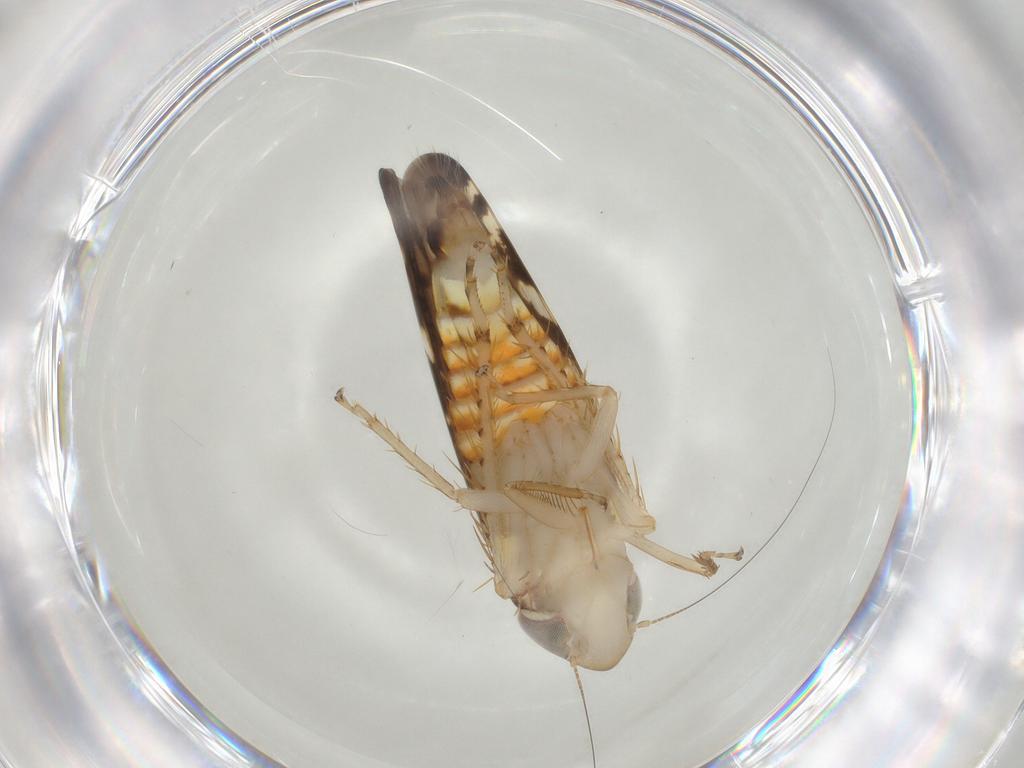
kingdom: Animalia
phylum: Arthropoda
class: Insecta
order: Hemiptera
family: Cicadellidae
